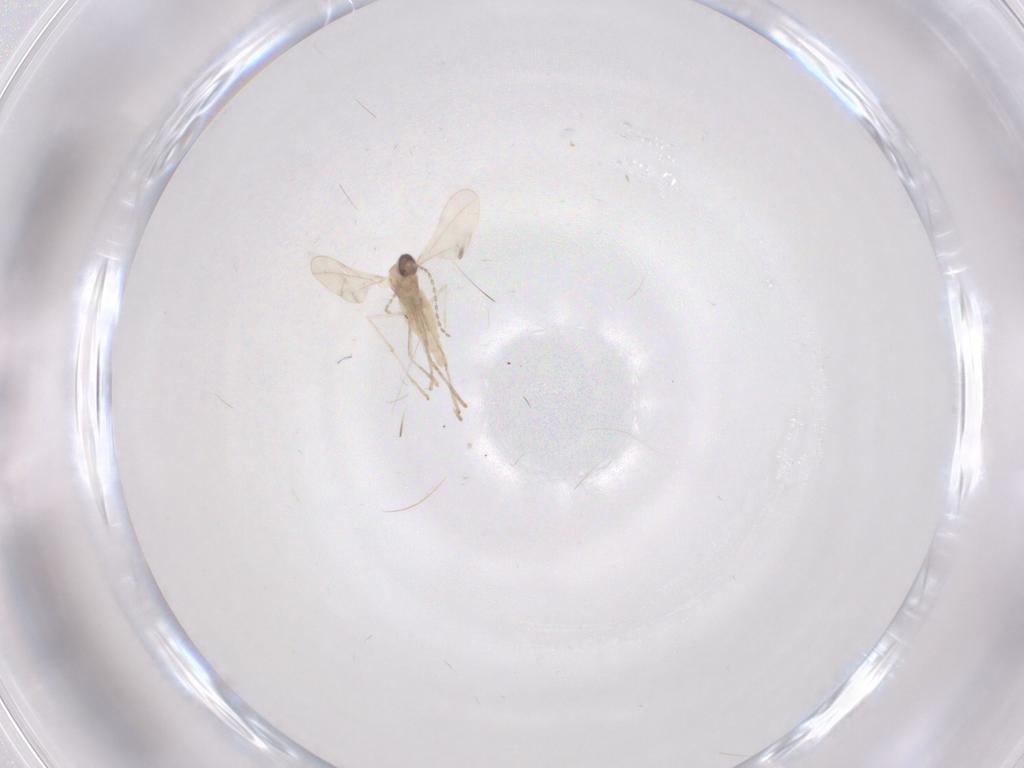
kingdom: Animalia
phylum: Arthropoda
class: Insecta
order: Diptera
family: Cecidomyiidae
